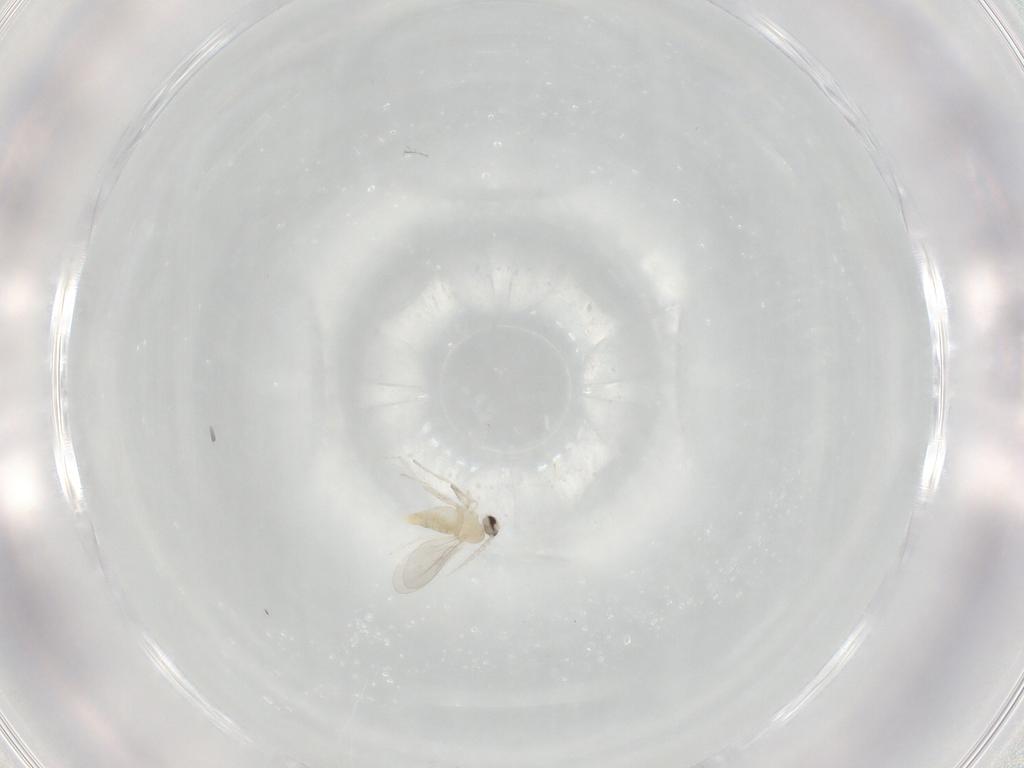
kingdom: Animalia
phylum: Arthropoda
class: Insecta
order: Diptera
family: Cecidomyiidae
